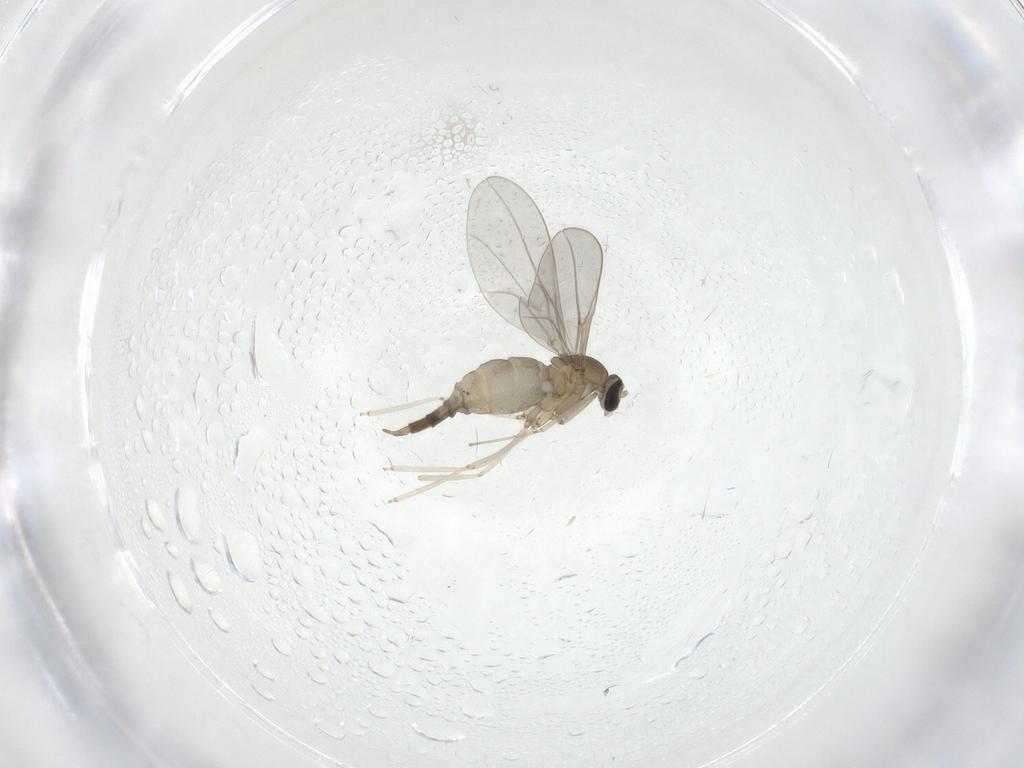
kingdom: Animalia
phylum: Arthropoda
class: Insecta
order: Diptera
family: Cecidomyiidae
